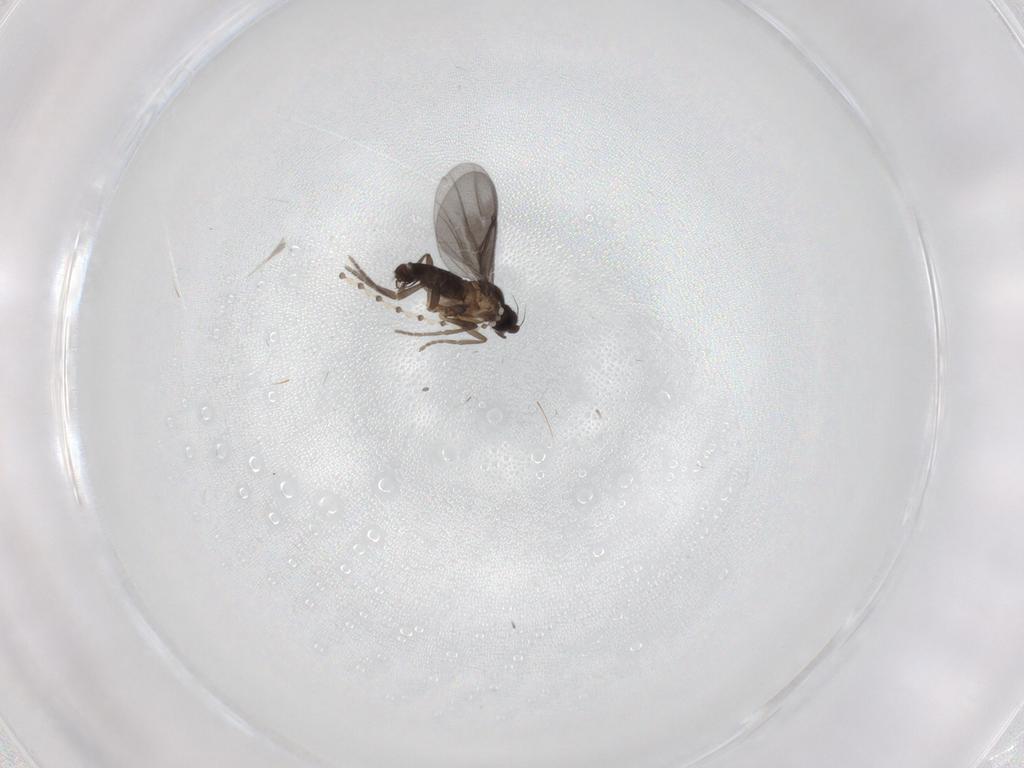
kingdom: Animalia
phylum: Arthropoda
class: Insecta
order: Diptera
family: Phoridae
